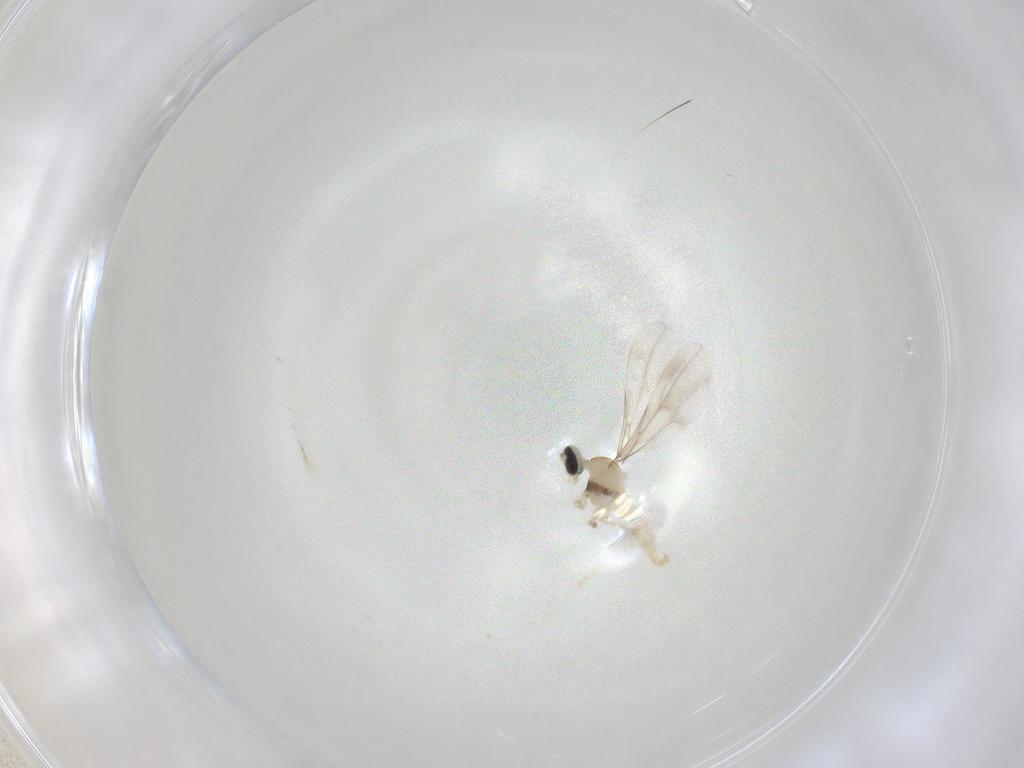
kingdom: Animalia
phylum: Arthropoda
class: Insecta
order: Diptera
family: Cecidomyiidae
